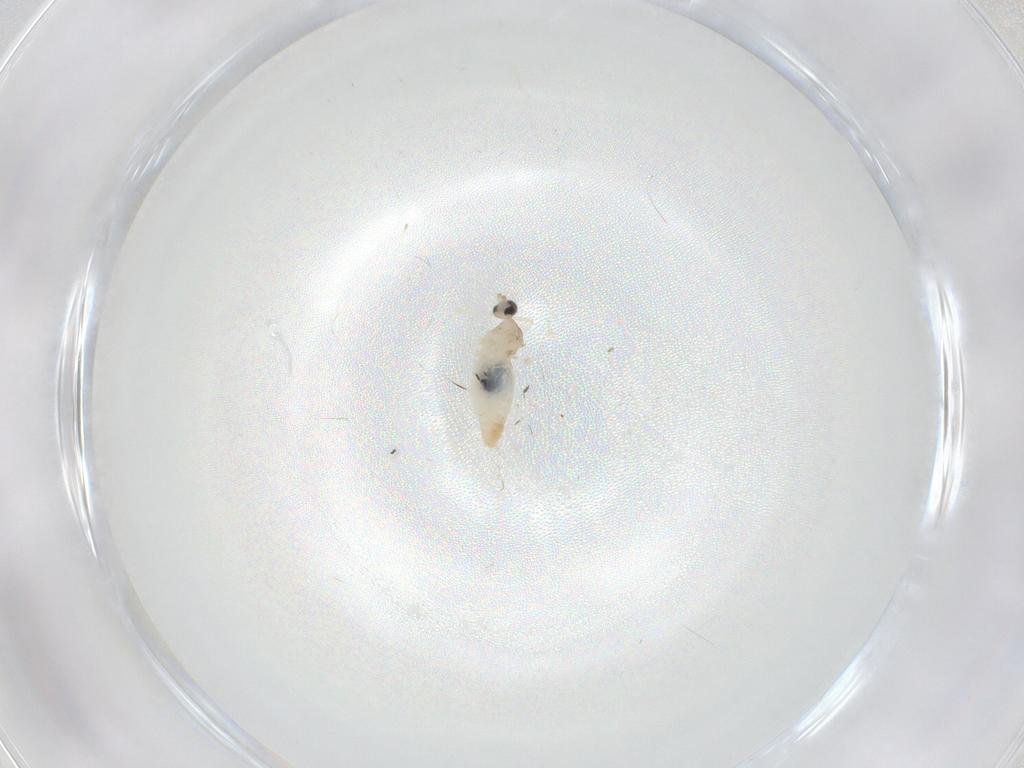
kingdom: Animalia
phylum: Arthropoda
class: Insecta
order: Diptera
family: Cecidomyiidae
